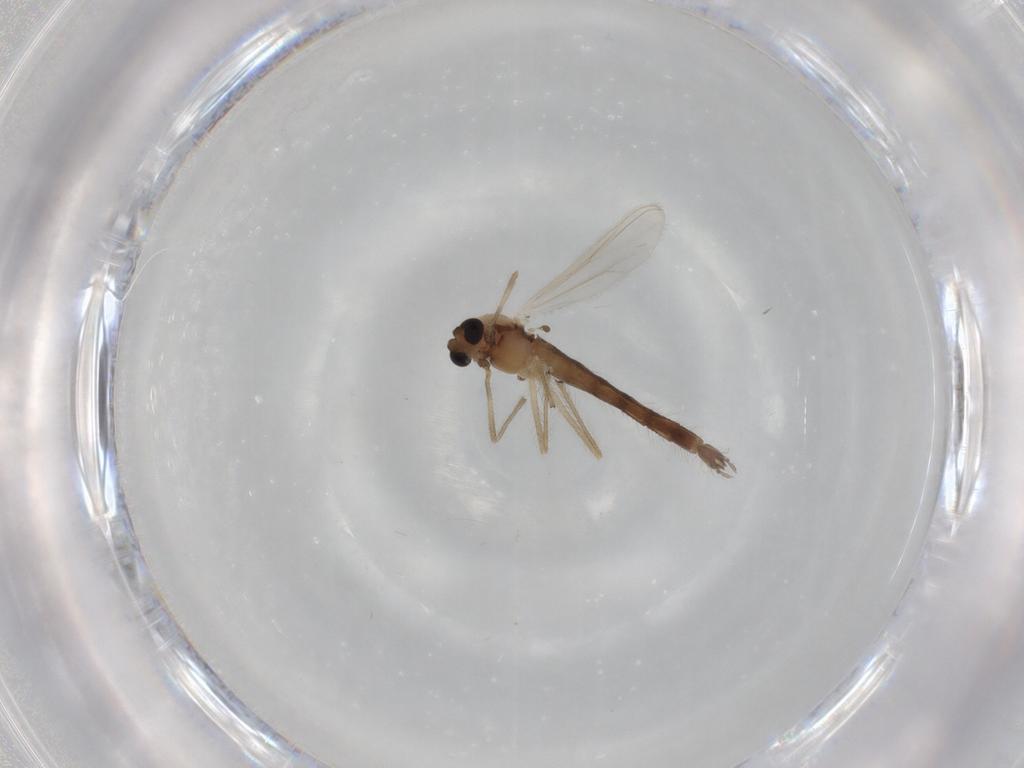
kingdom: Animalia
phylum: Arthropoda
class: Insecta
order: Diptera
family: Chironomidae
